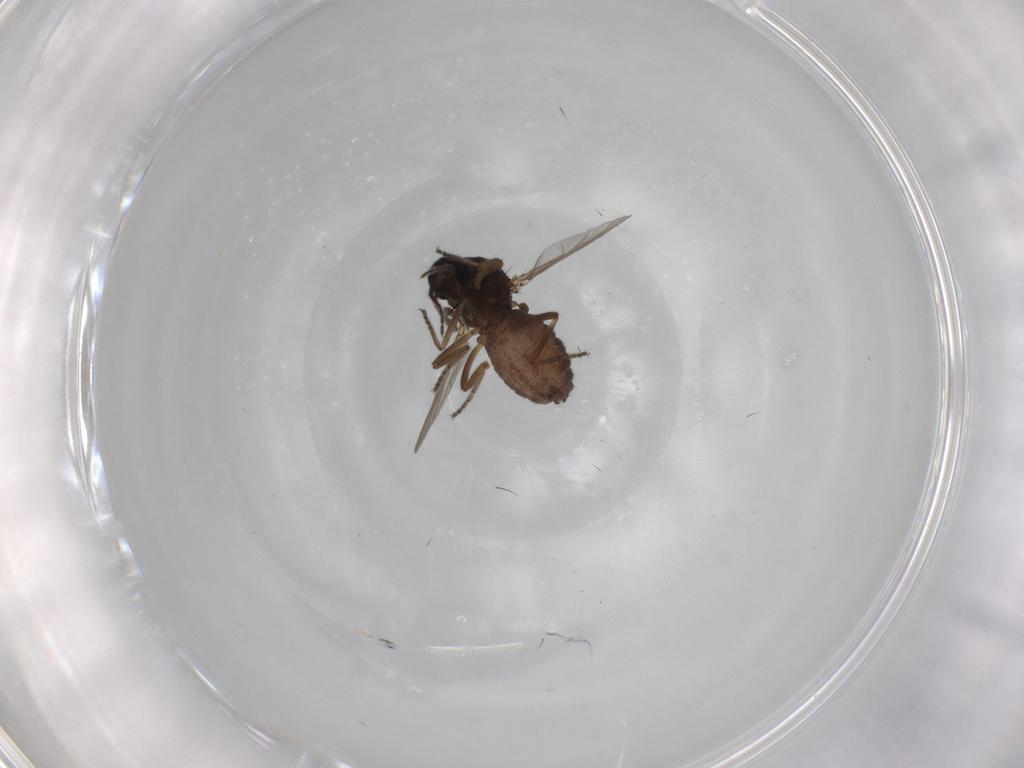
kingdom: Animalia
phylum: Arthropoda
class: Insecta
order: Diptera
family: Ceratopogonidae
